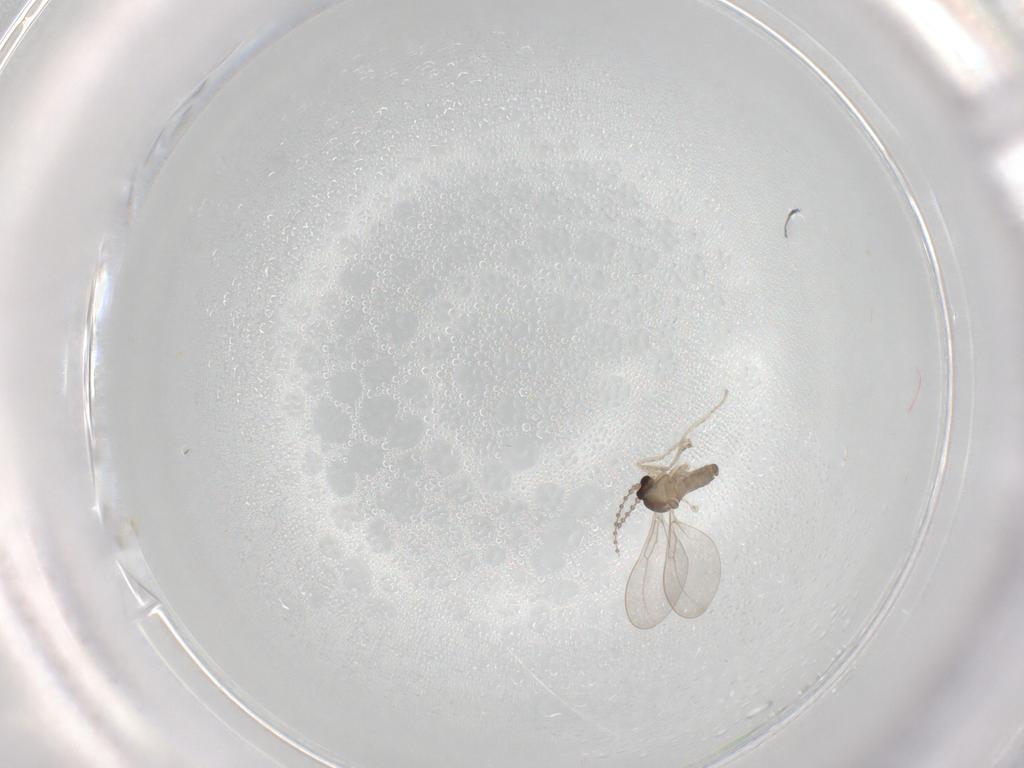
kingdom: Animalia
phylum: Arthropoda
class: Insecta
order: Diptera
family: Cecidomyiidae
